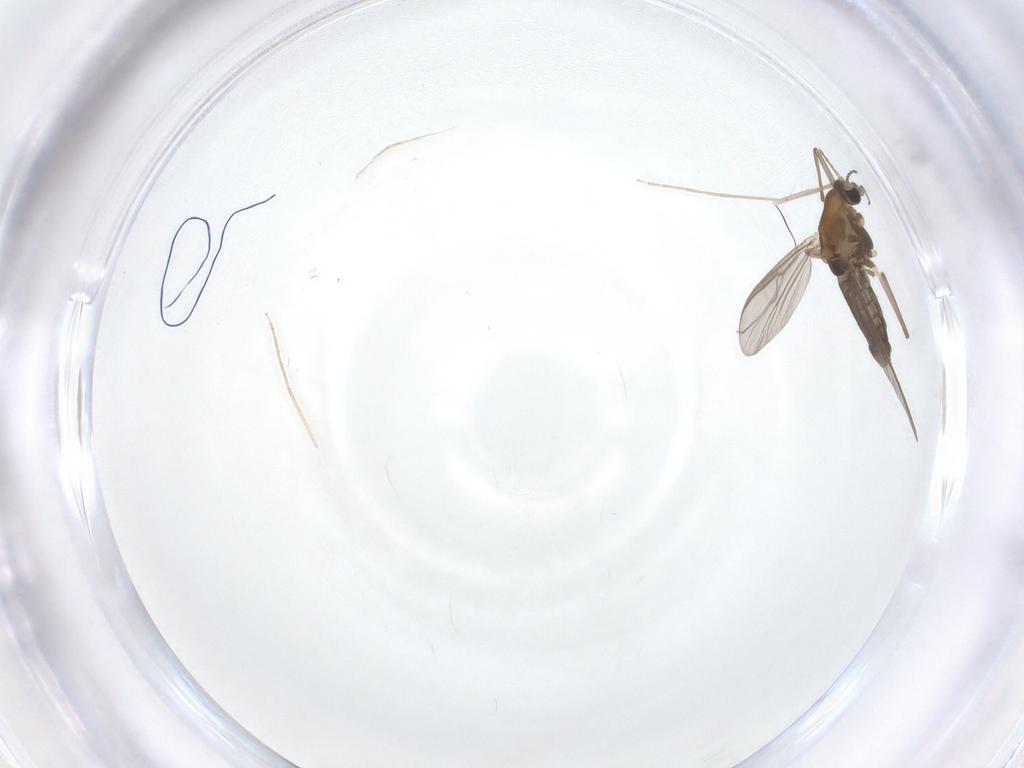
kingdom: Animalia
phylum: Arthropoda
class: Insecta
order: Diptera
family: Chironomidae
